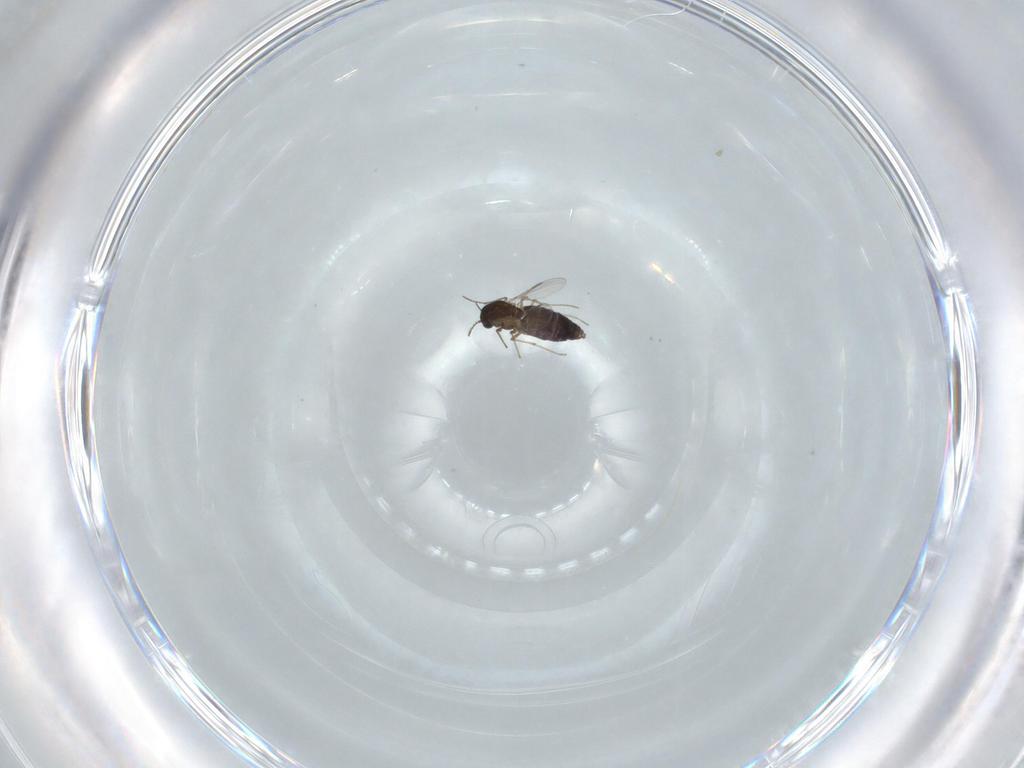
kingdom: Animalia
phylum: Arthropoda
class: Insecta
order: Diptera
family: Chironomidae
